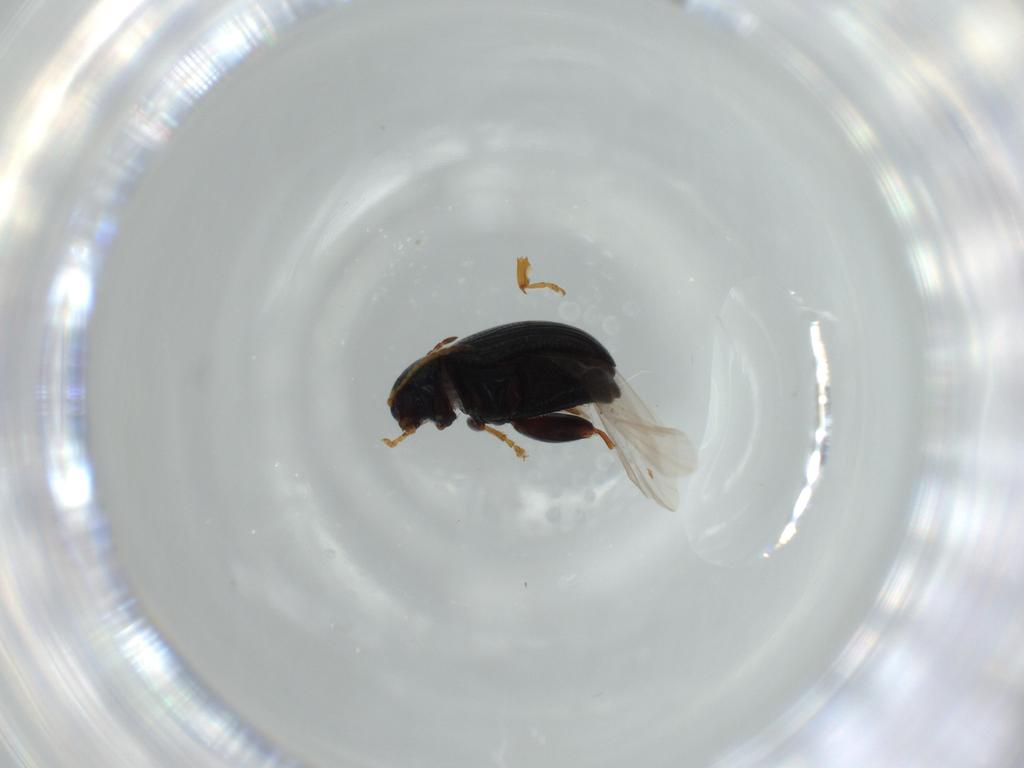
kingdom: Animalia
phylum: Arthropoda
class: Insecta
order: Coleoptera
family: Chrysomelidae
